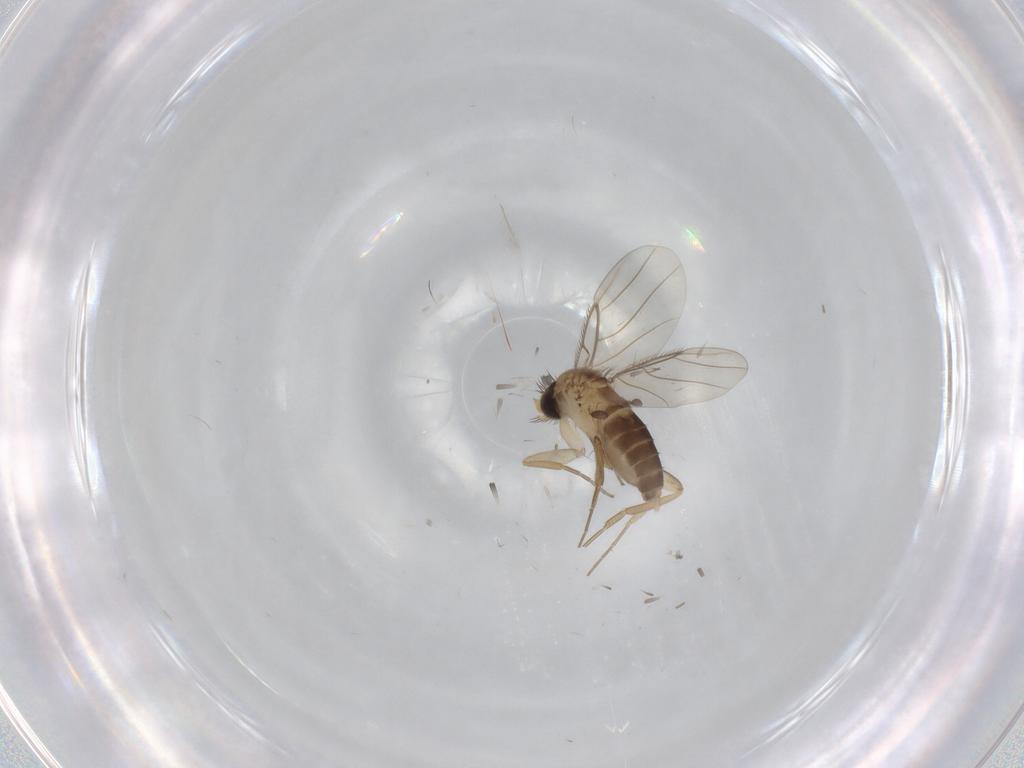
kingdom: Animalia
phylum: Arthropoda
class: Insecta
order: Diptera
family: Phoridae
